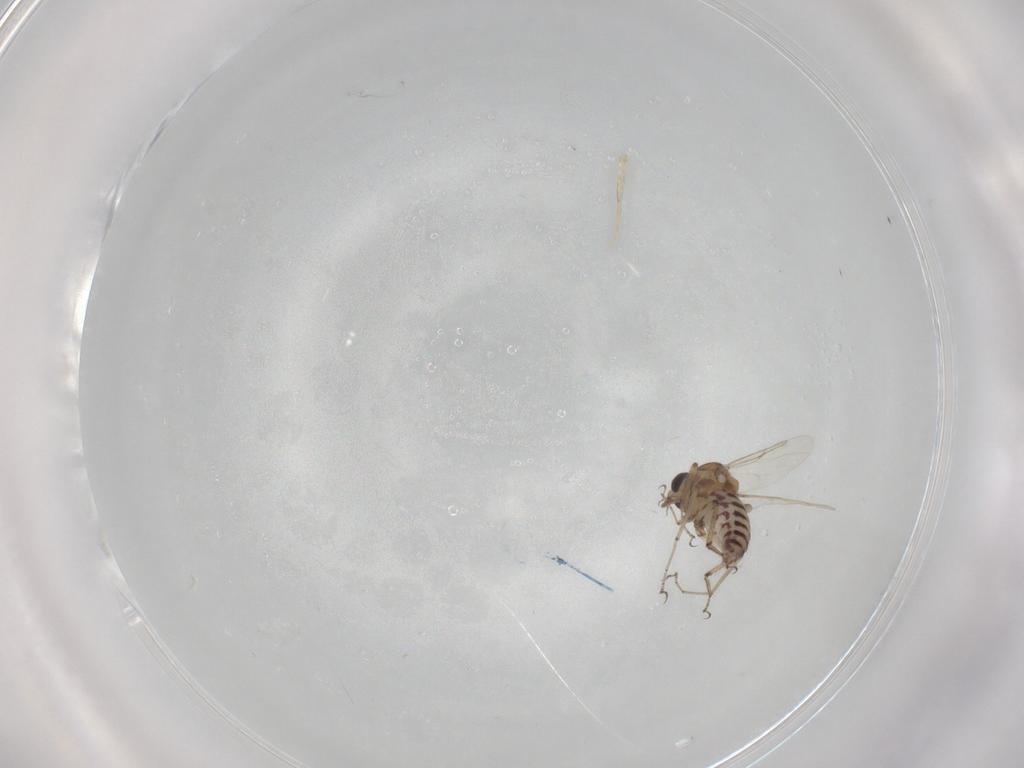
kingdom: Animalia
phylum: Arthropoda
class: Insecta
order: Diptera
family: Ceratopogonidae
